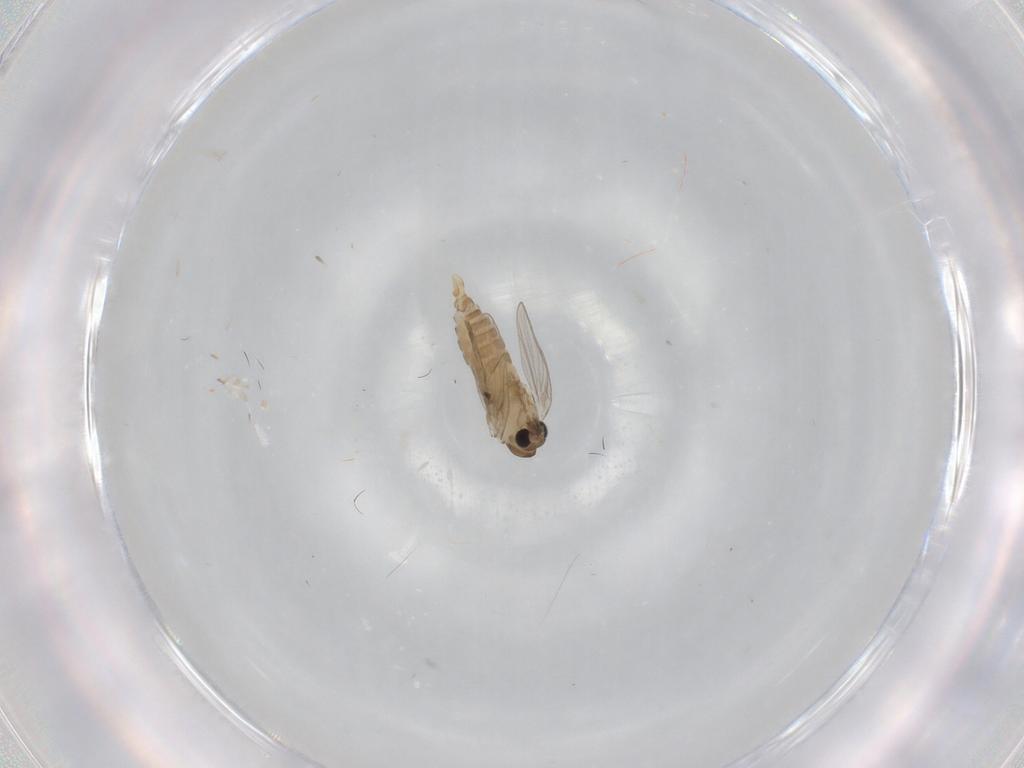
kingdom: Animalia
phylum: Arthropoda
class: Insecta
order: Diptera
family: Psychodidae
